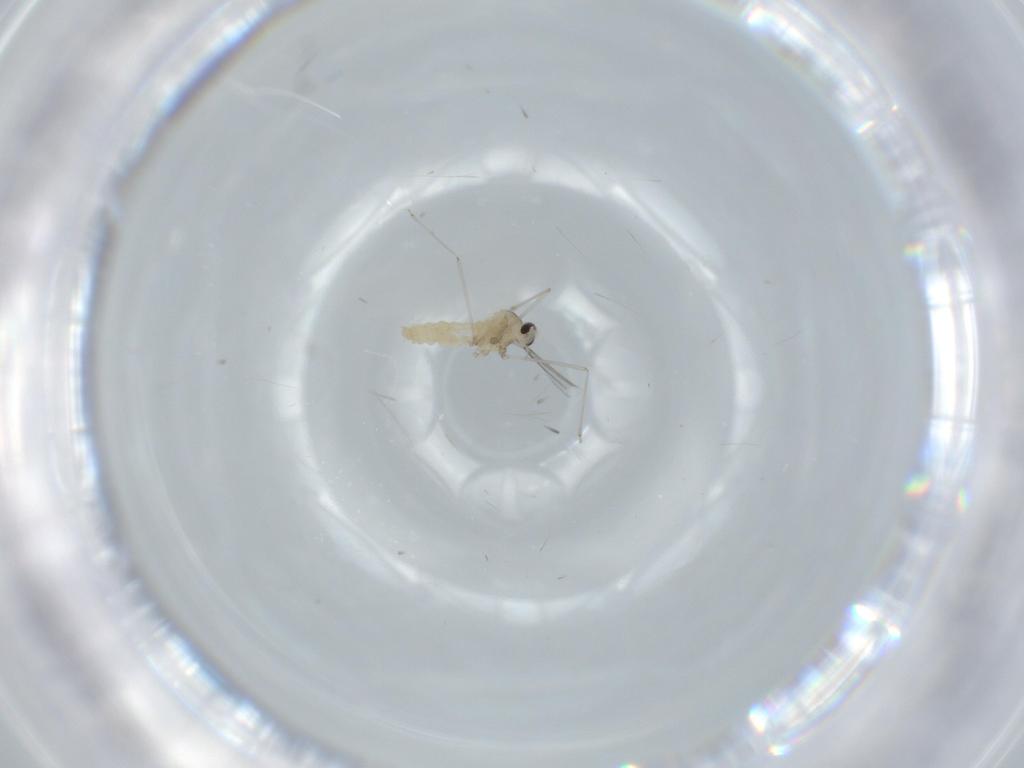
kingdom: Animalia
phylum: Arthropoda
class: Insecta
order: Diptera
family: Cecidomyiidae
